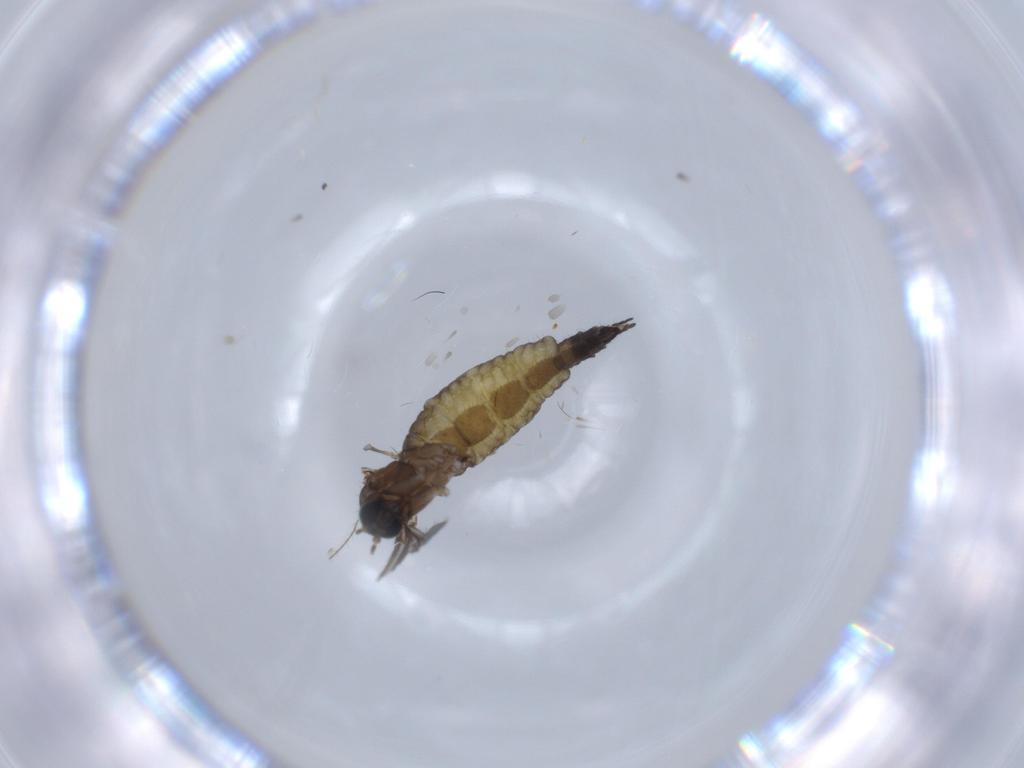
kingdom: Animalia
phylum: Arthropoda
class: Insecta
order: Diptera
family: Sciaridae
